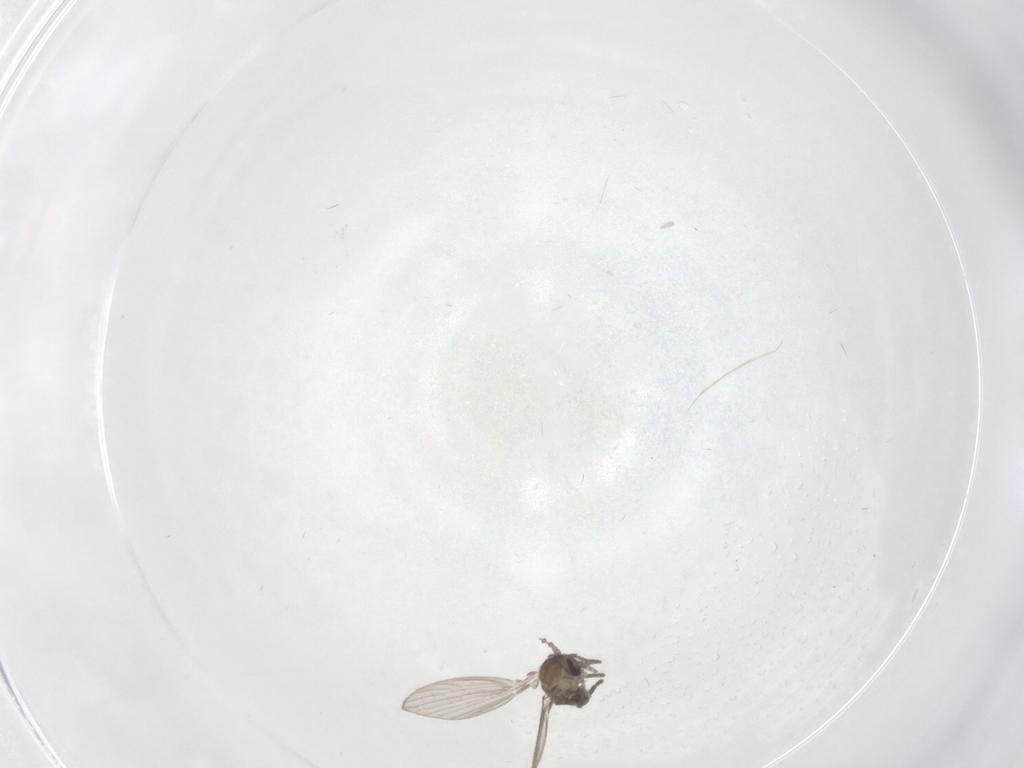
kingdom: Animalia
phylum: Arthropoda
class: Insecta
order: Diptera
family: Psychodidae
